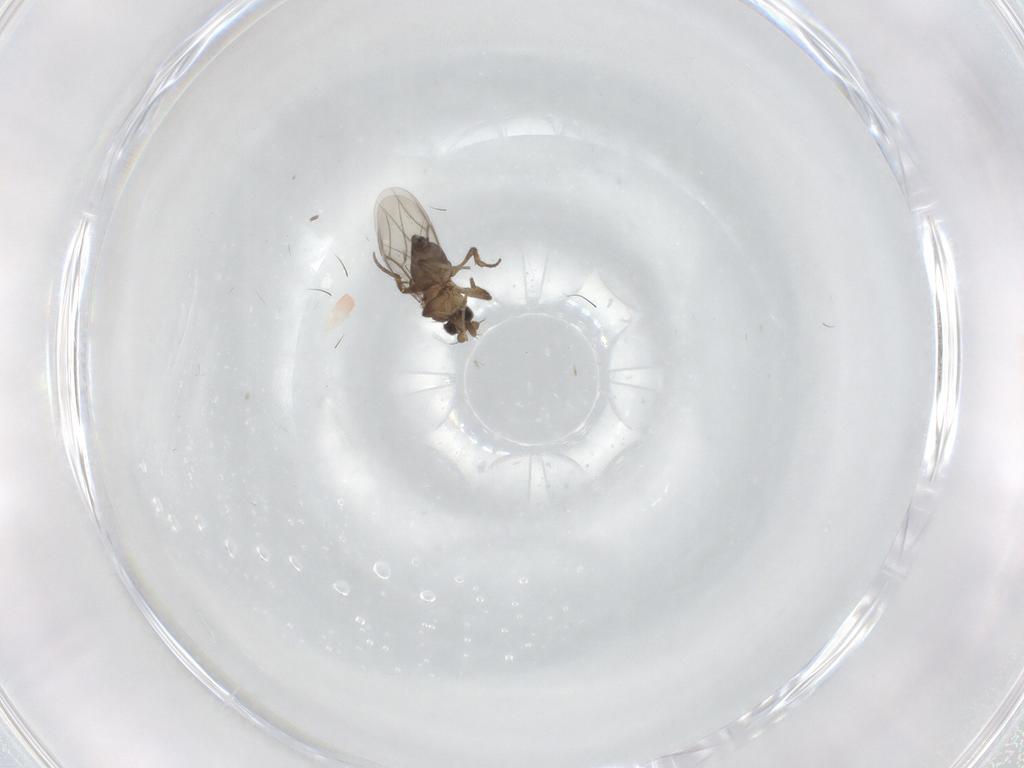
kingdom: Animalia
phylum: Arthropoda
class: Insecta
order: Diptera
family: Phoridae
